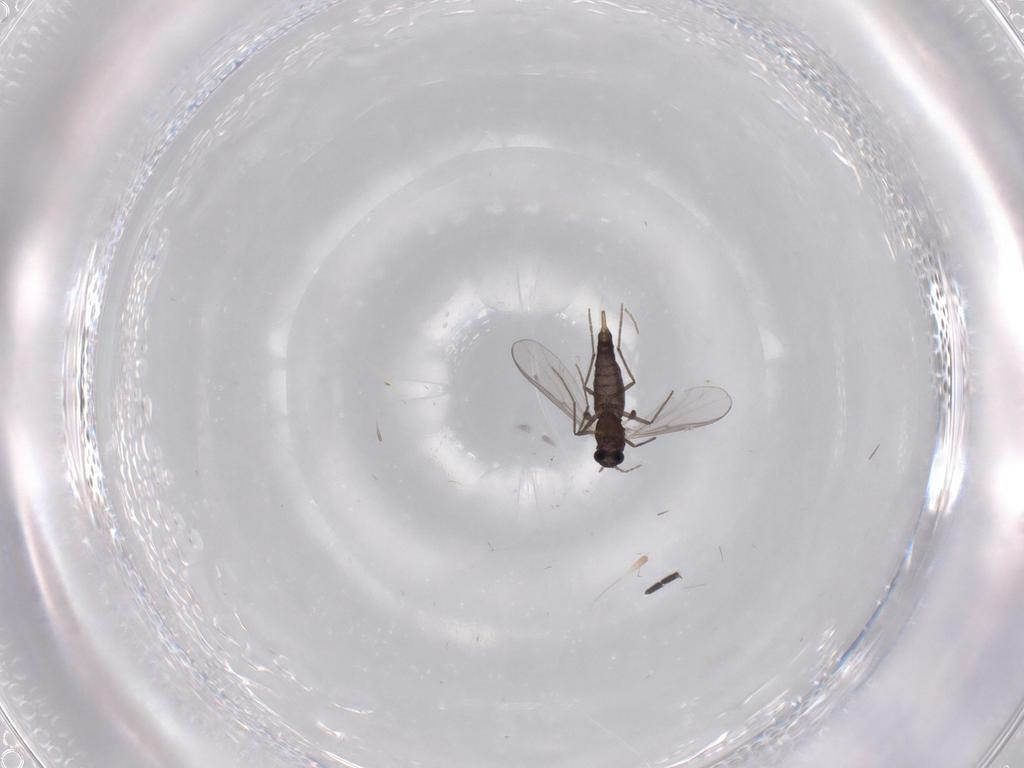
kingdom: Animalia
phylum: Arthropoda
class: Insecta
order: Diptera
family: Chironomidae
